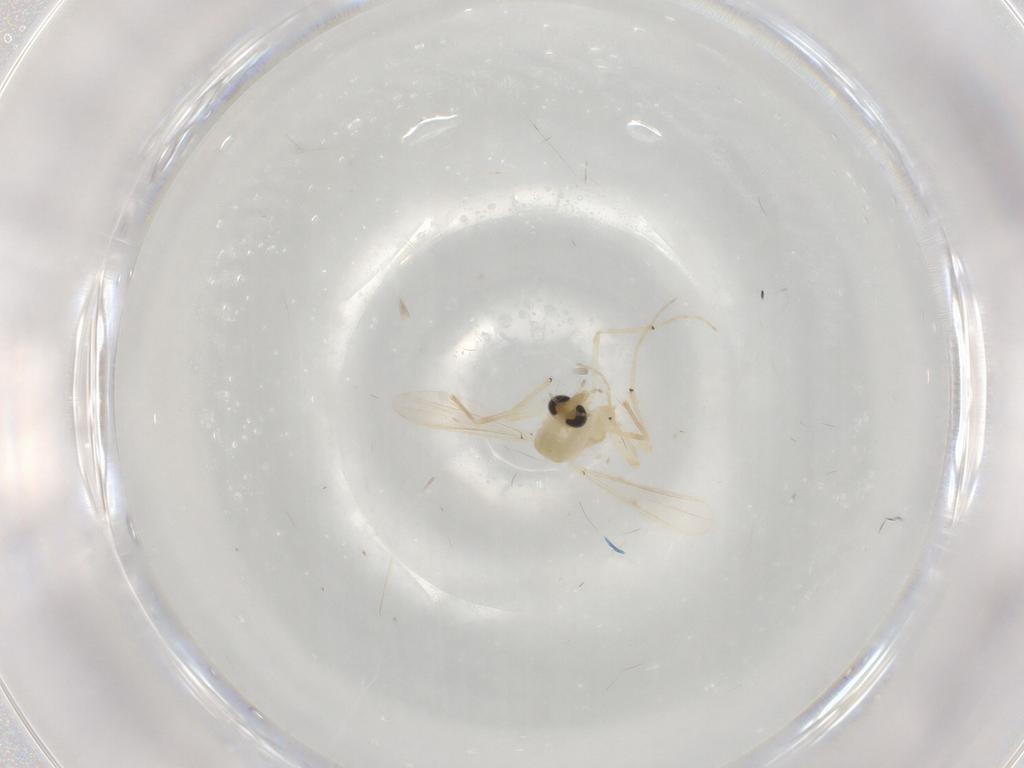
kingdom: Animalia
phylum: Arthropoda
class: Insecta
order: Diptera
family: Chironomidae
